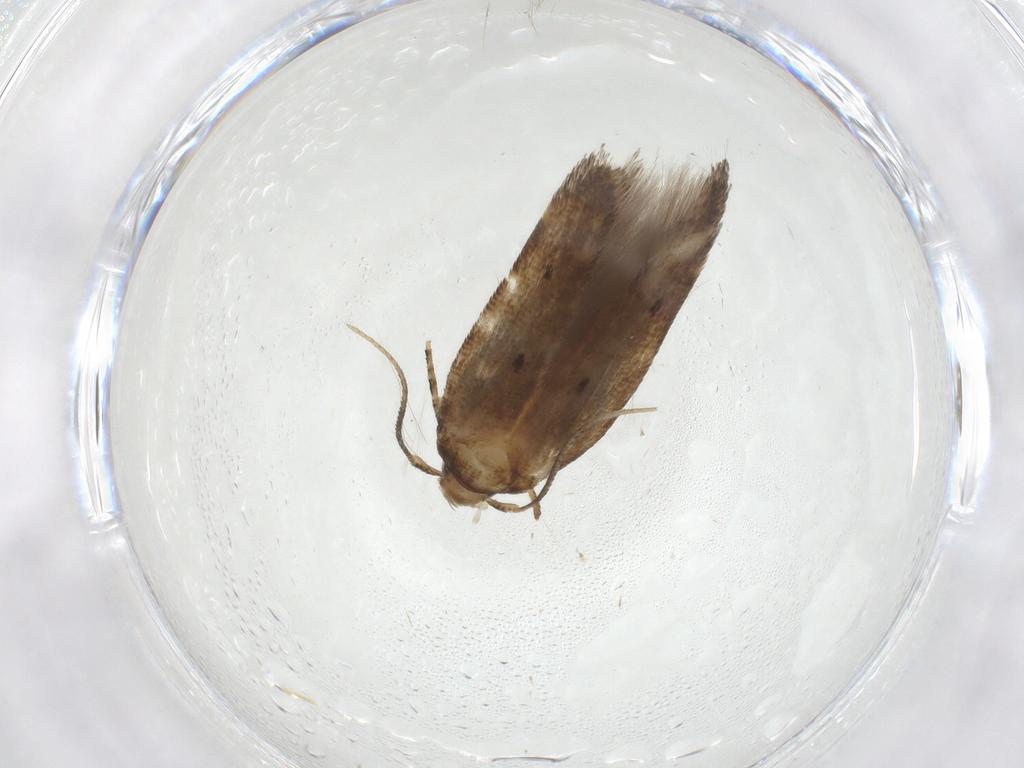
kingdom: Animalia
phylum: Arthropoda
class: Insecta
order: Lepidoptera
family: Cosmopterigidae
